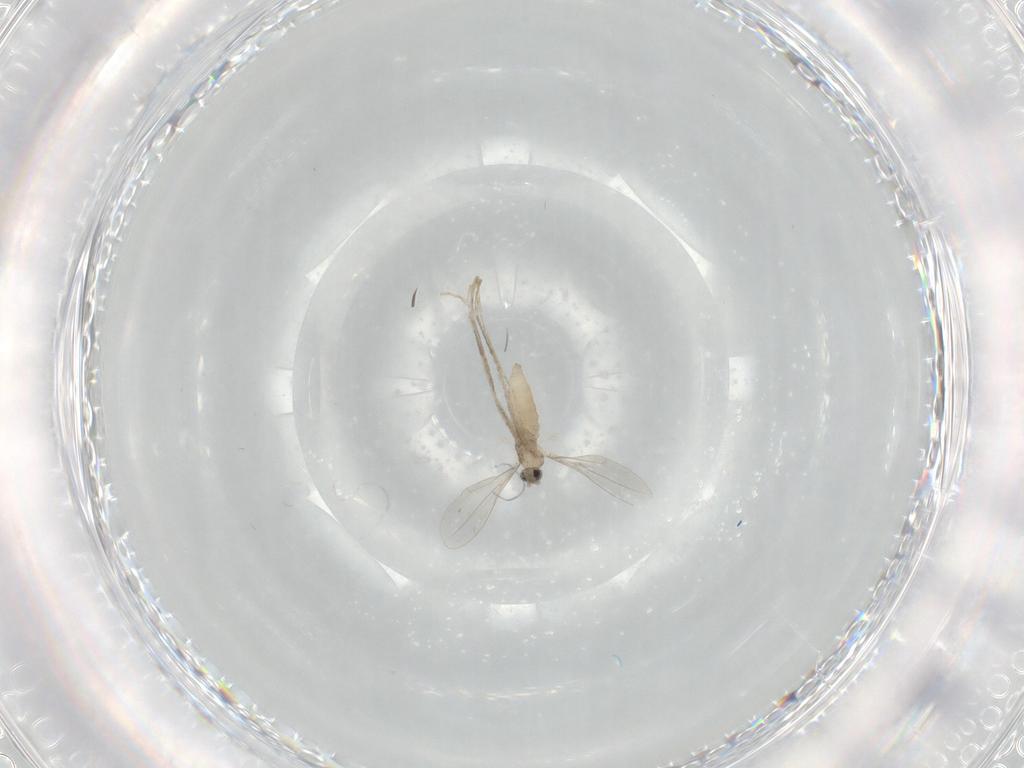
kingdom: Animalia
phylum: Arthropoda
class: Insecta
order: Diptera
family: Cecidomyiidae
